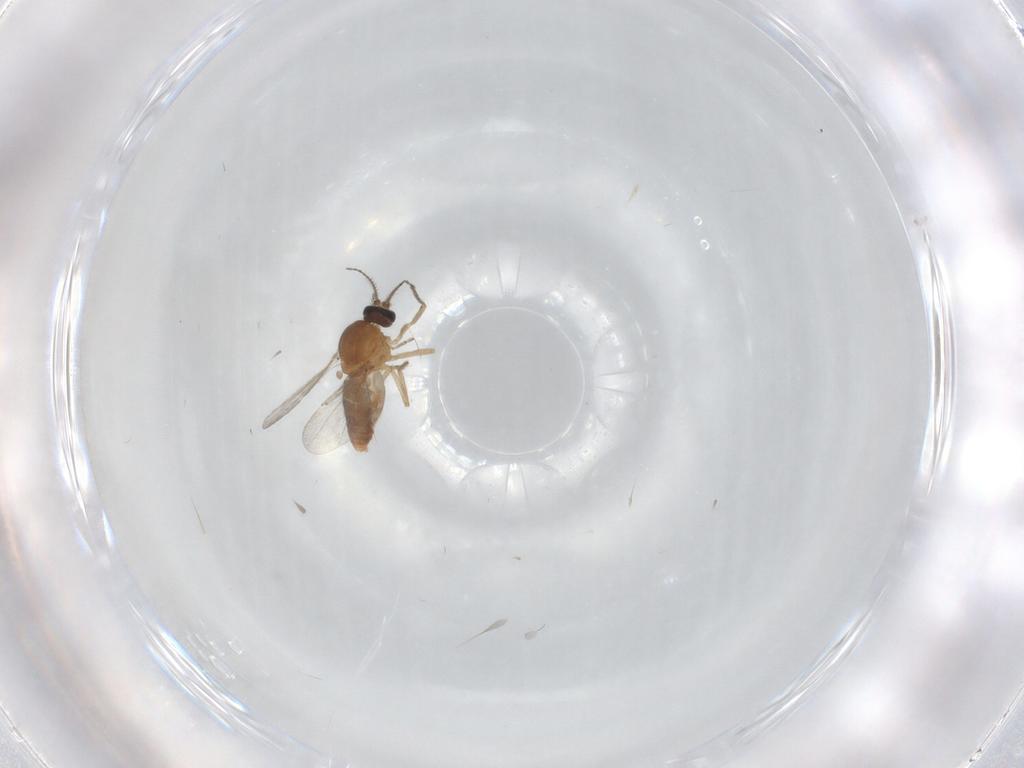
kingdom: Animalia
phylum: Arthropoda
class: Insecta
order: Diptera
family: Ceratopogonidae
